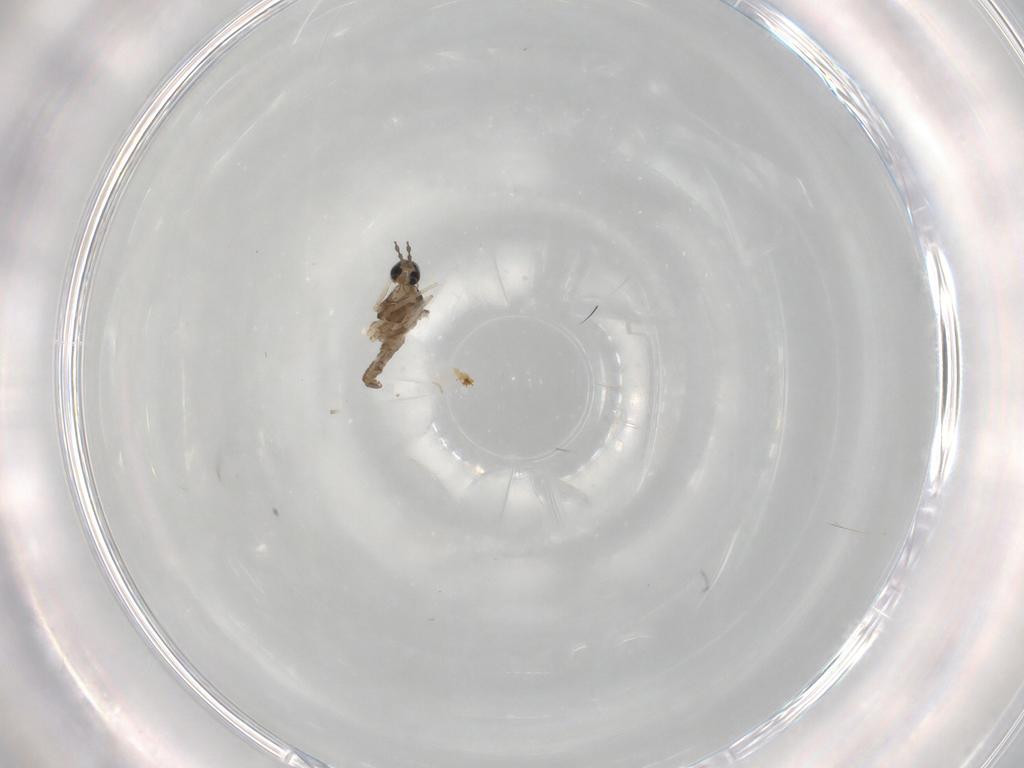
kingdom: Animalia
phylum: Arthropoda
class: Insecta
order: Diptera
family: Cecidomyiidae
